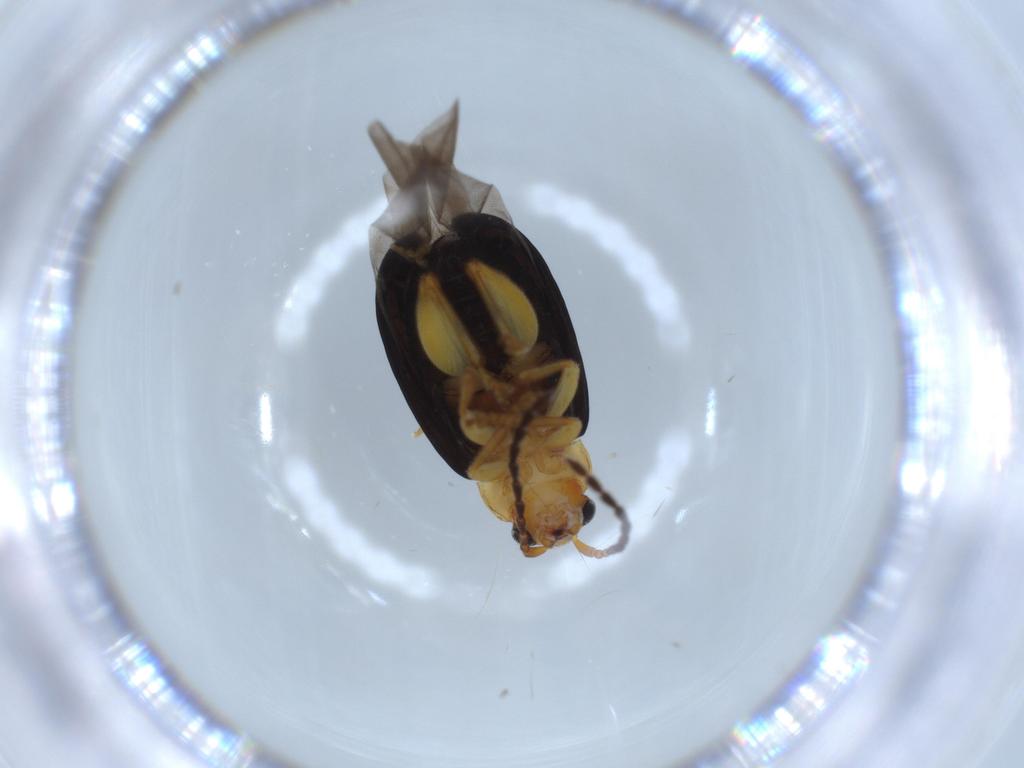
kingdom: Animalia
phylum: Arthropoda
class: Insecta
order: Coleoptera
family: Chrysomelidae
